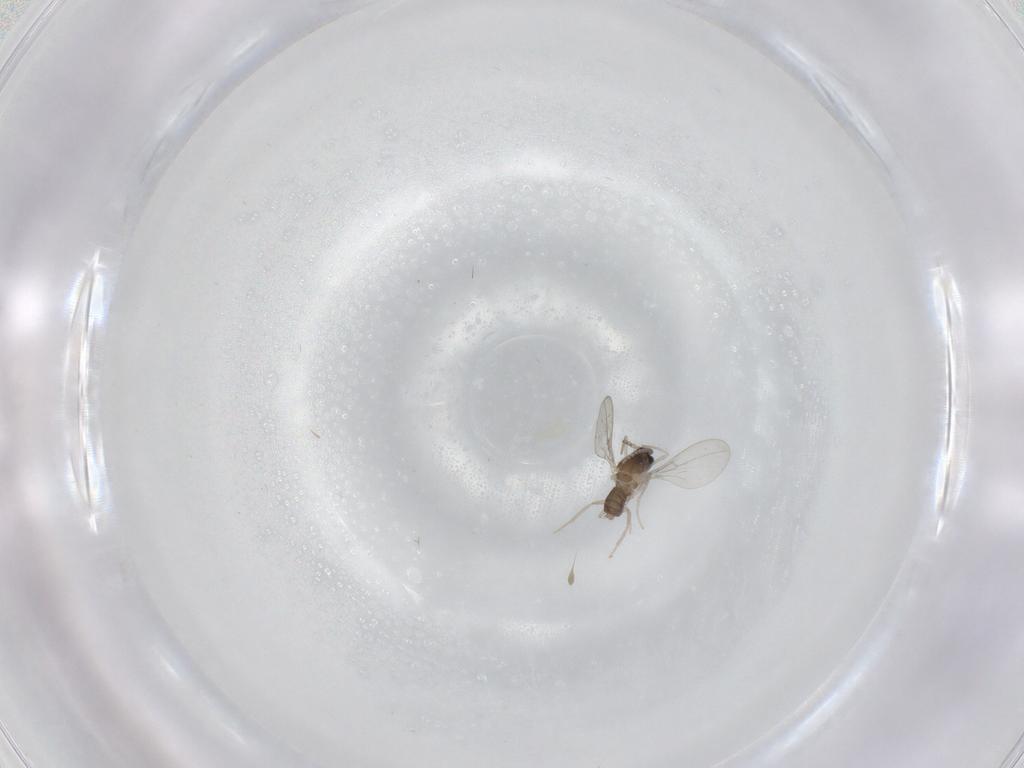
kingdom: Animalia
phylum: Arthropoda
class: Insecta
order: Diptera
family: Cecidomyiidae
